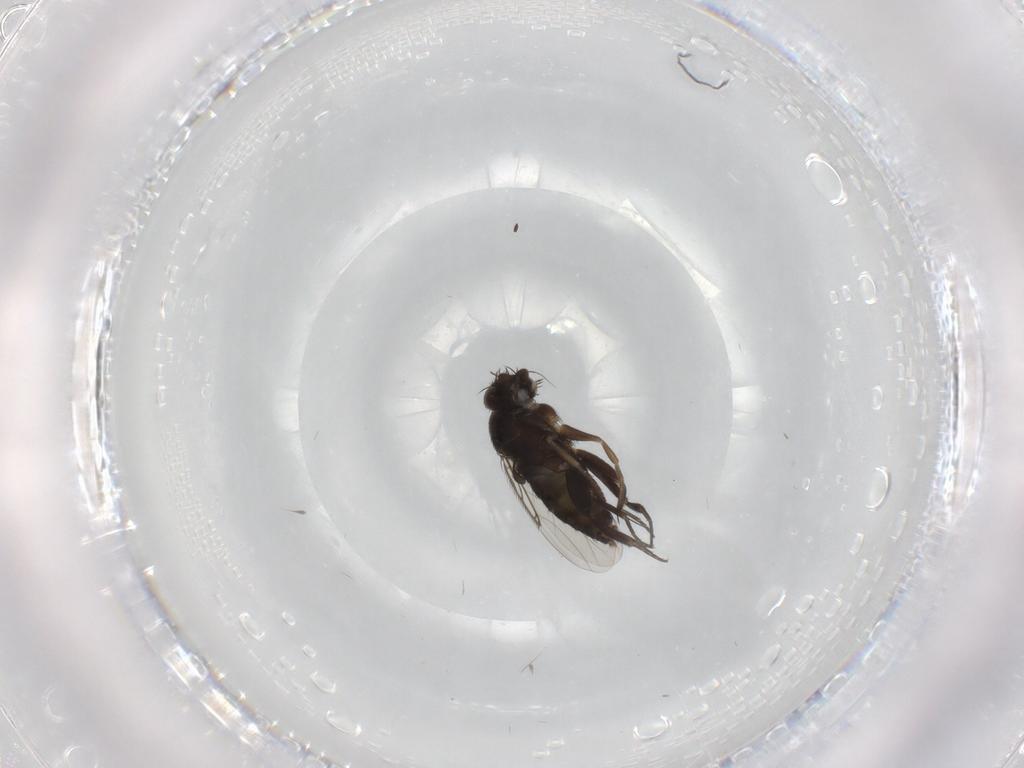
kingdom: Animalia
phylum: Arthropoda
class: Insecta
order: Diptera
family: Phoridae
